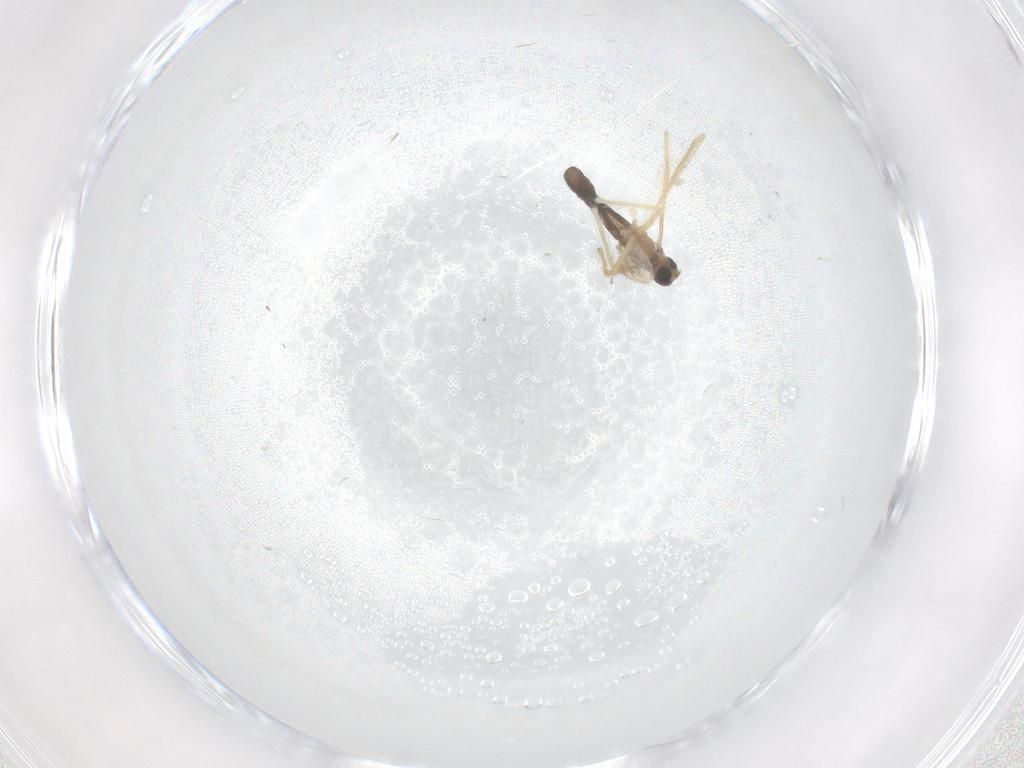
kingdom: Animalia
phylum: Arthropoda
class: Insecta
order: Diptera
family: Chironomidae
